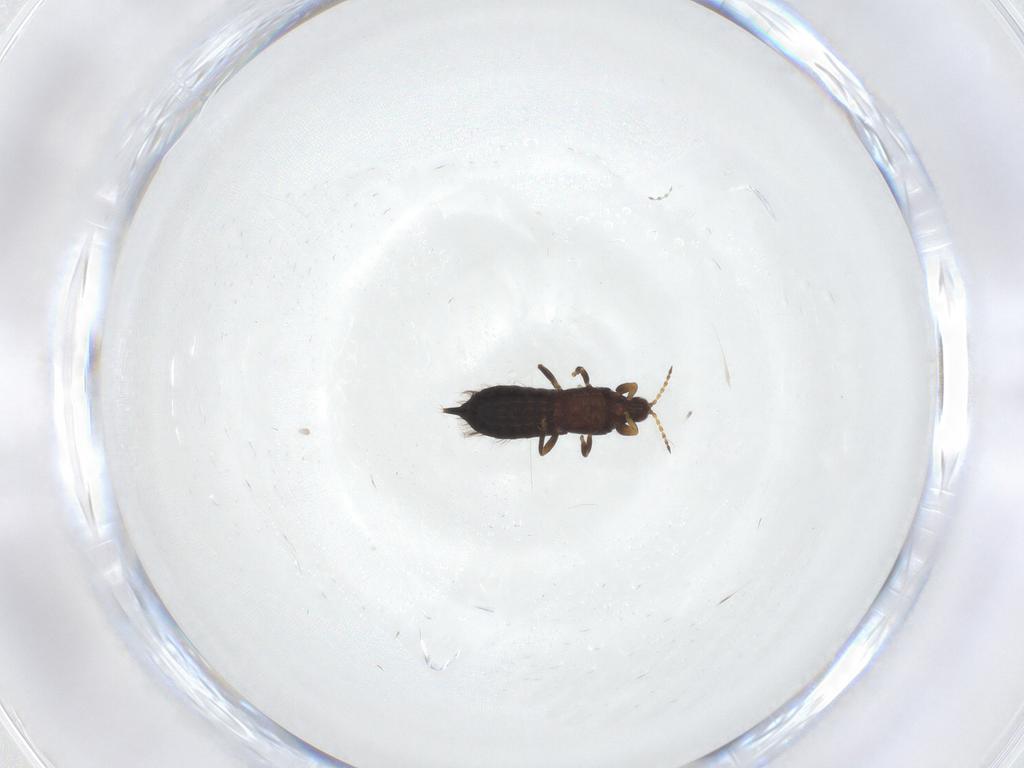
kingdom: Animalia
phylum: Arthropoda
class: Insecta
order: Thysanoptera
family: Phlaeothripidae
